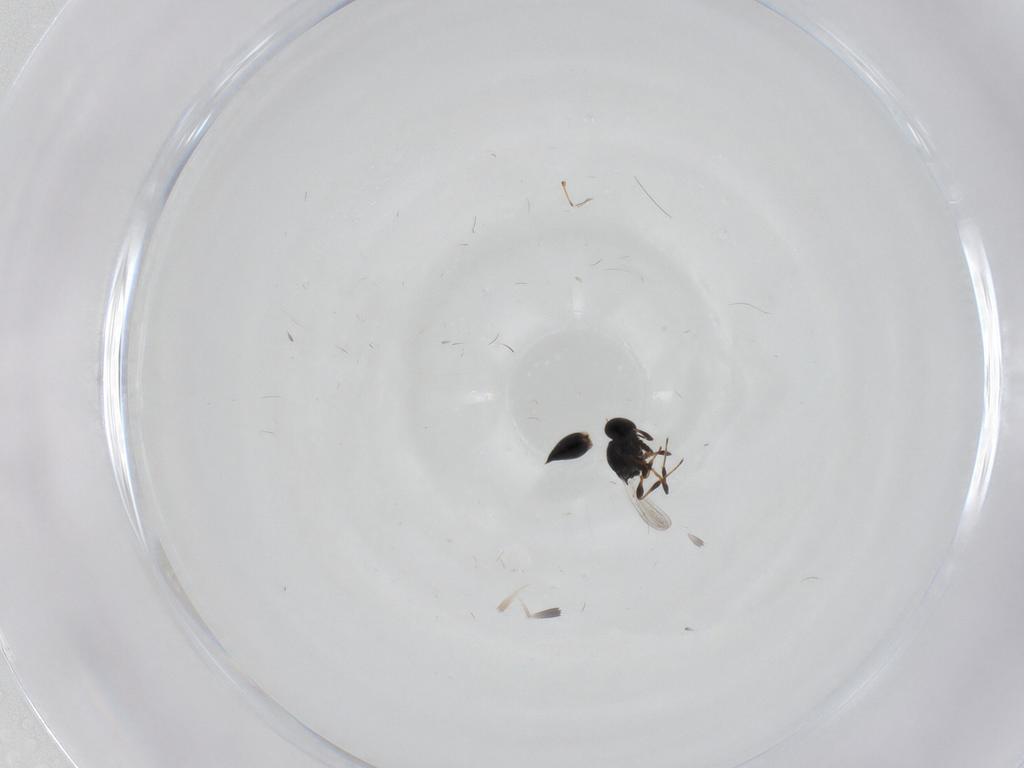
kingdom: Animalia
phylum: Arthropoda
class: Insecta
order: Hymenoptera
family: Platygastridae
